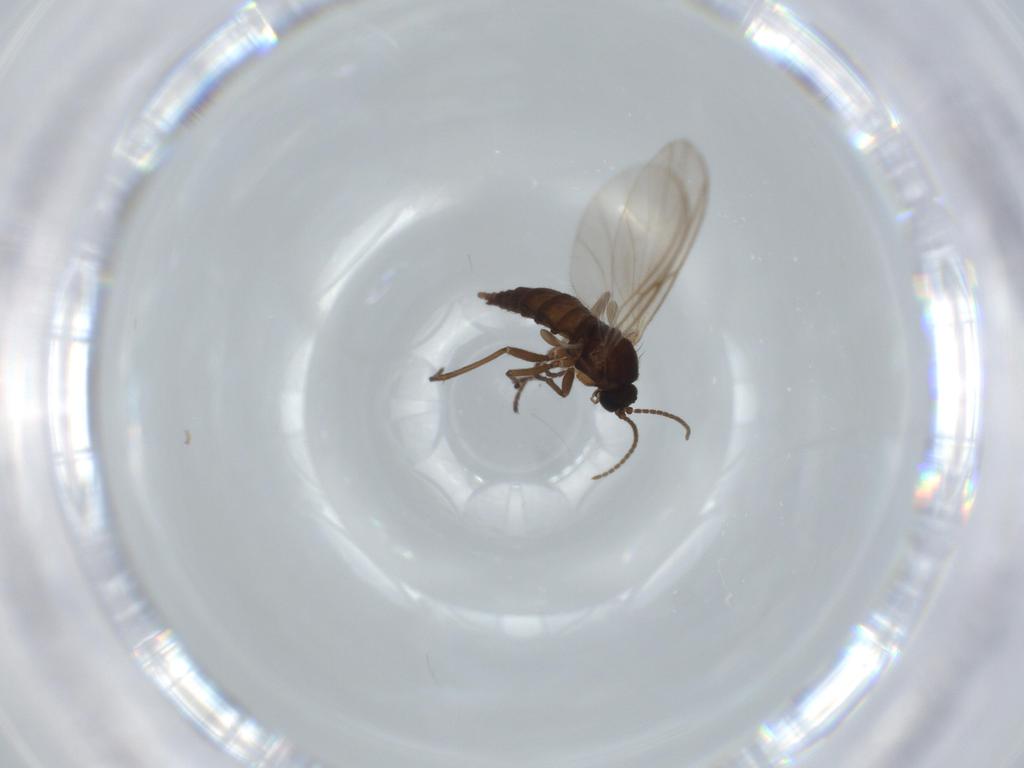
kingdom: Animalia
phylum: Arthropoda
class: Insecta
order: Diptera
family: Sciaridae
